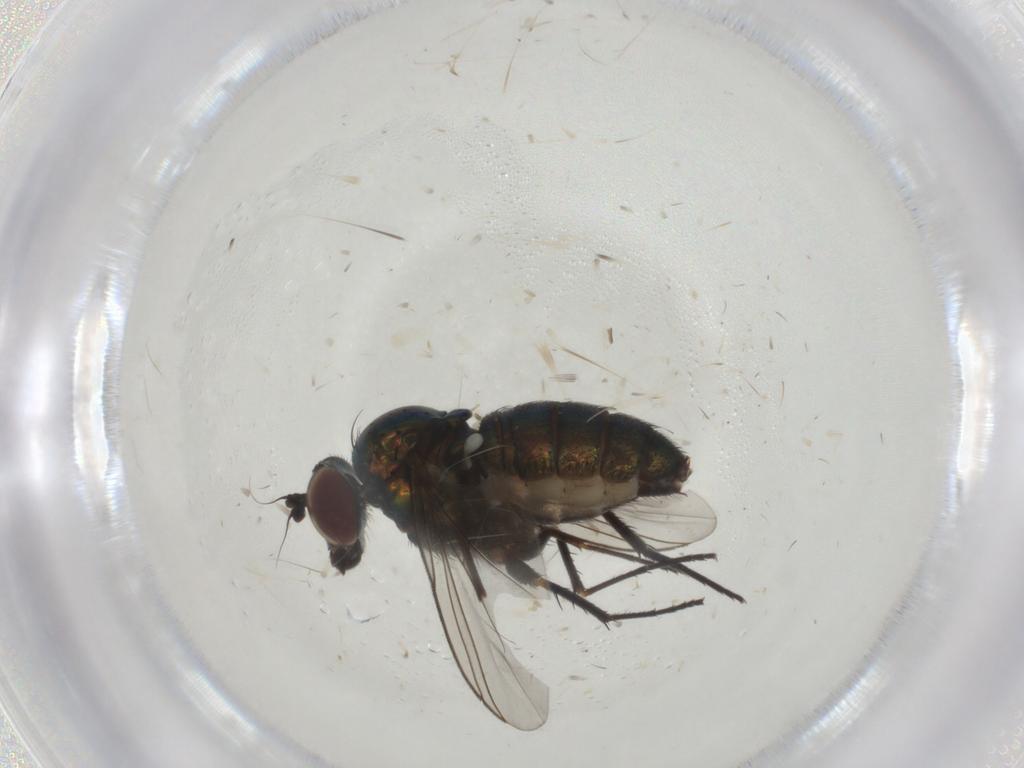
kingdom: Animalia
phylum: Arthropoda
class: Insecta
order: Diptera
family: Dolichopodidae
